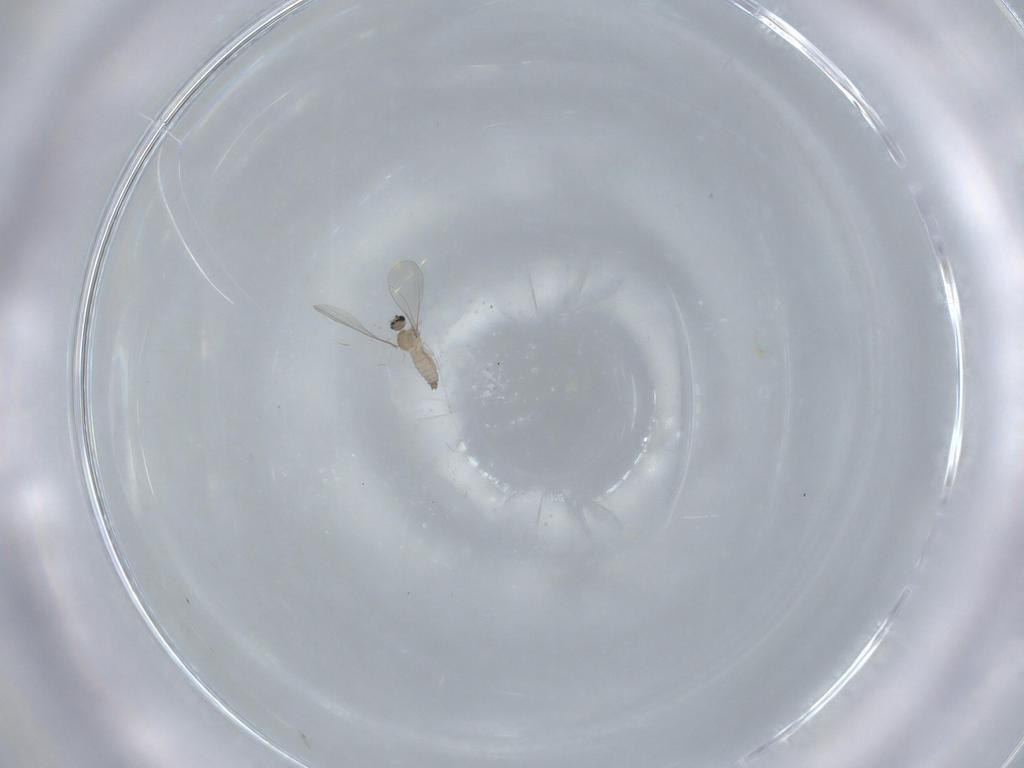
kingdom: Animalia
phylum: Arthropoda
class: Insecta
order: Diptera
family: Cecidomyiidae
